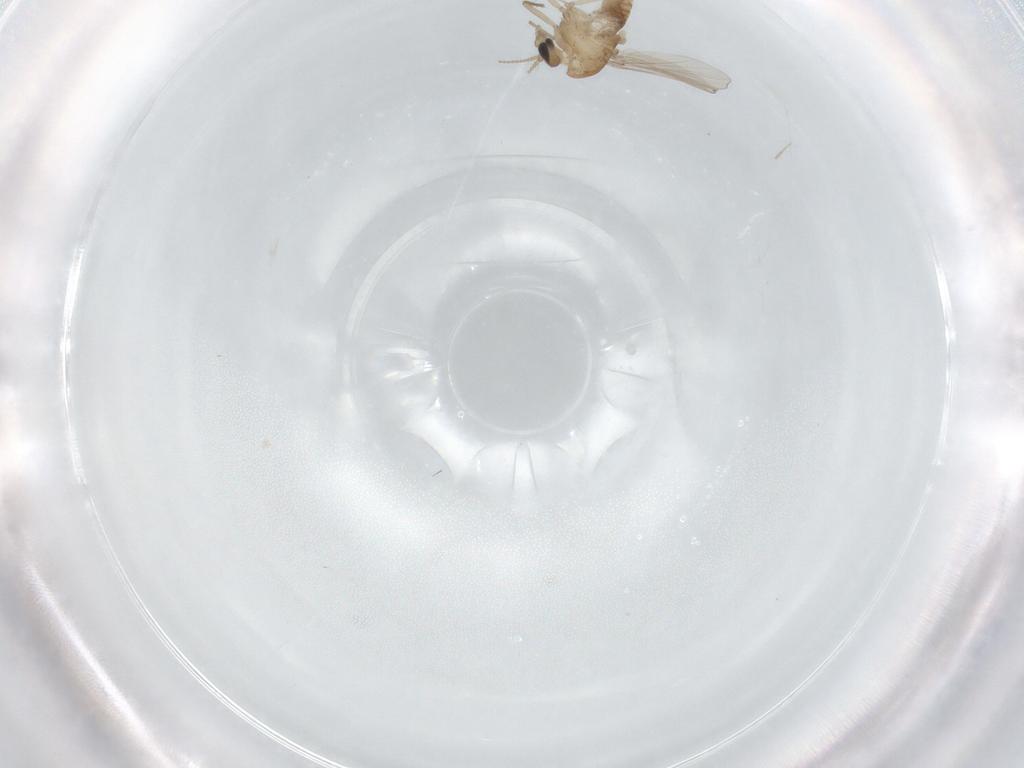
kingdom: Animalia
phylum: Arthropoda
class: Insecta
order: Diptera
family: Chironomidae
